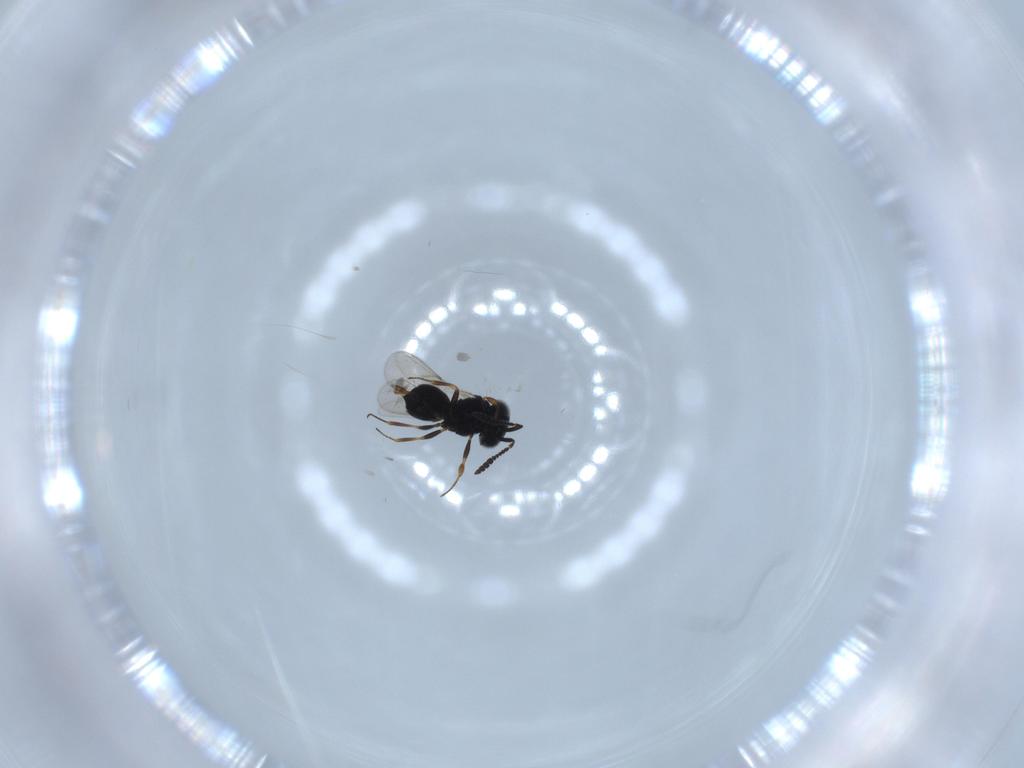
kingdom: Animalia
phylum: Arthropoda
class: Insecta
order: Hymenoptera
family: Scelionidae
